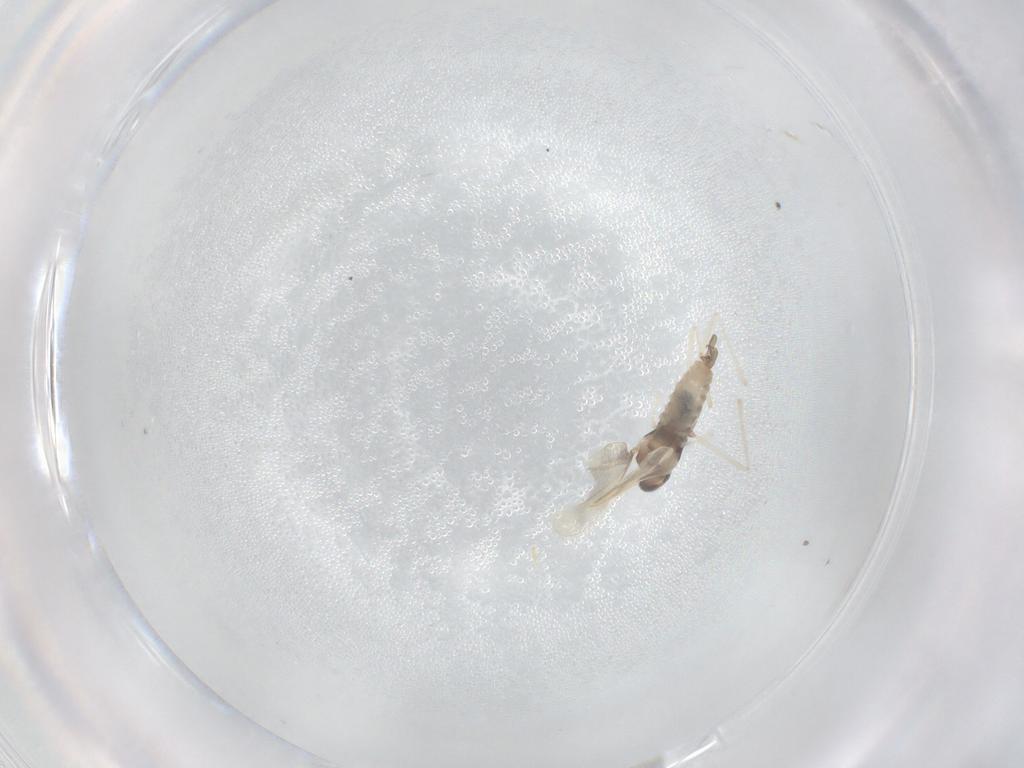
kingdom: Animalia
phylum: Arthropoda
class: Insecta
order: Diptera
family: Cecidomyiidae
